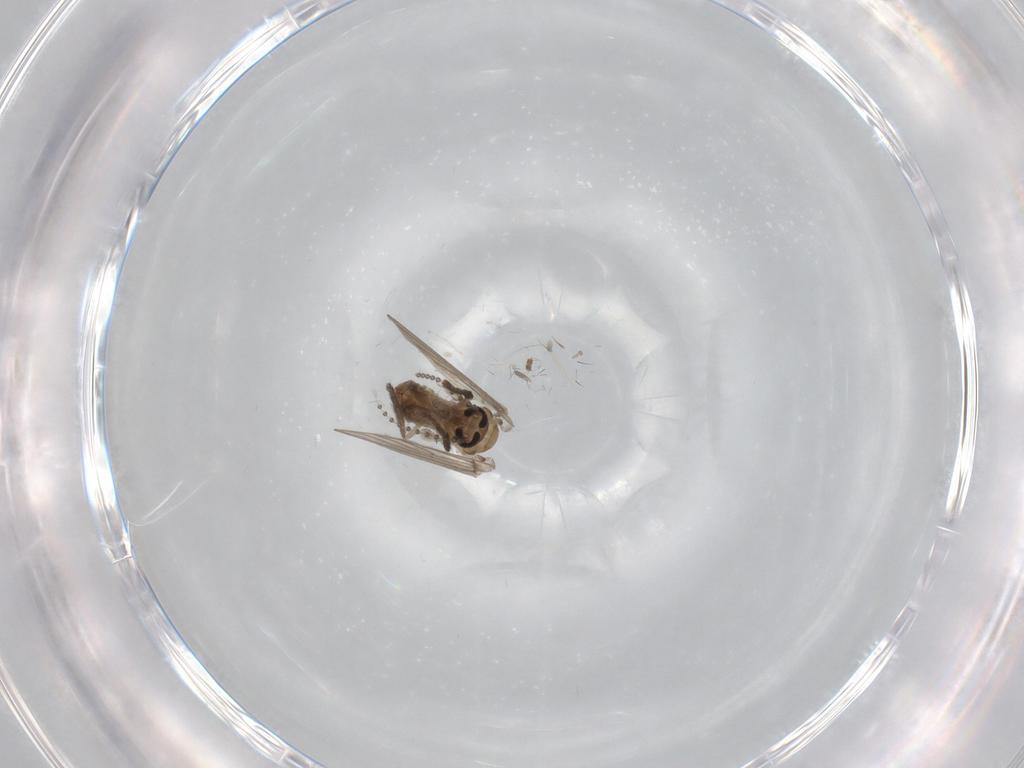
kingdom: Animalia
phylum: Arthropoda
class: Insecta
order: Diptera
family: Psychodidae
